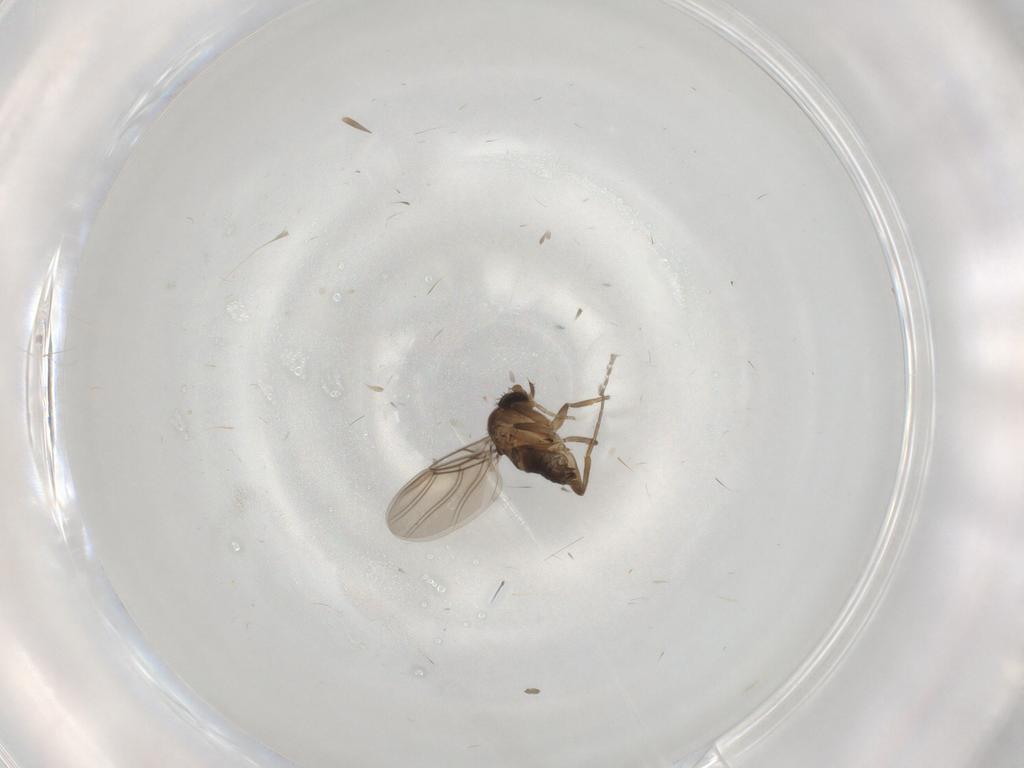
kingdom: Animalia
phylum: Arthropoda
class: Insecta
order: Diptera
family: Phoridae
